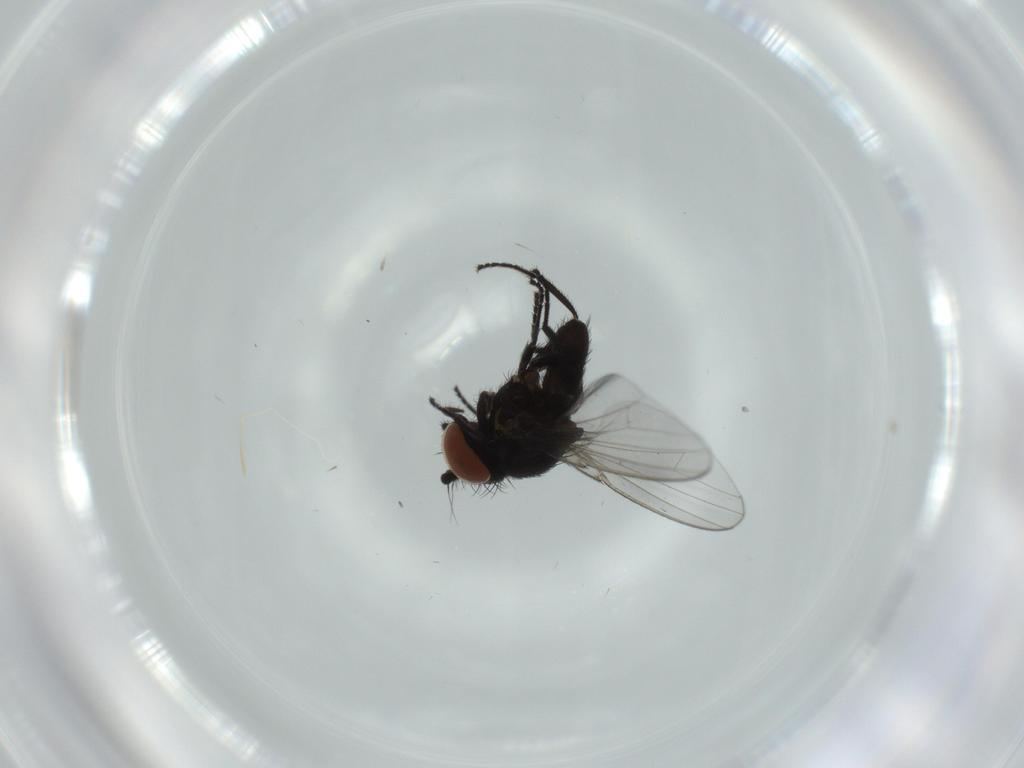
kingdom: Animalia
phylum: Arthropoda
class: Insecta
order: Diptera
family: Milichiidae
